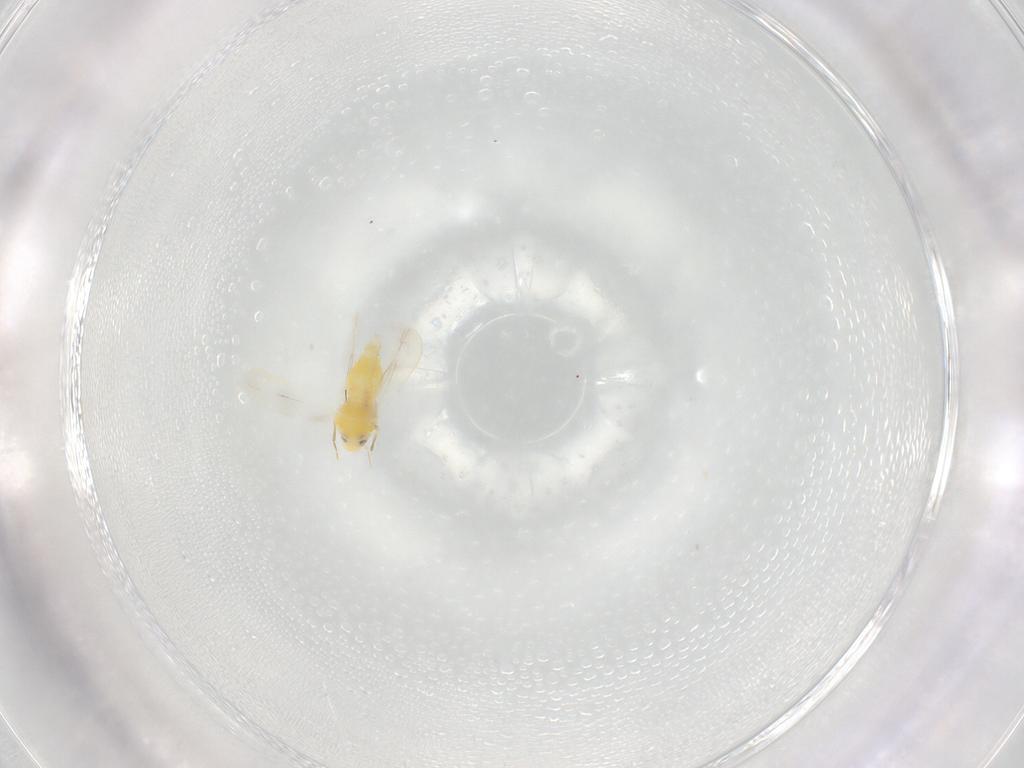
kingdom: Animalia
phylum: Arthropoda
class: Insecta
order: Hemiptera
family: Aleyrodidae
